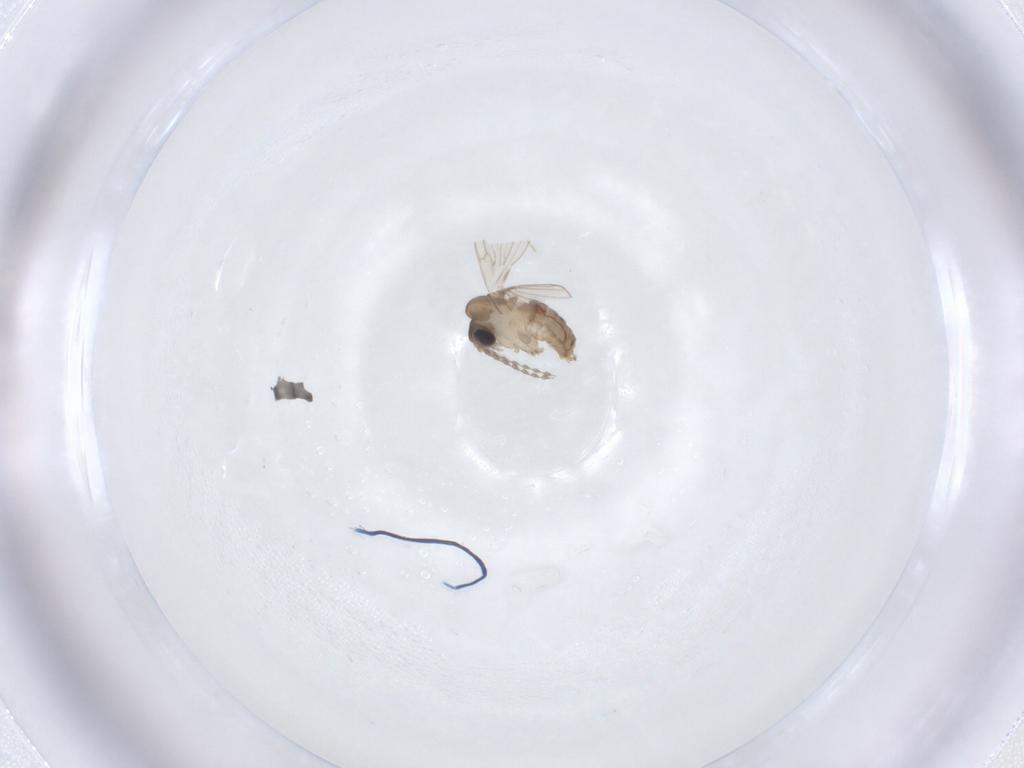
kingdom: Animalia
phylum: Arthropoda
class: Insecta
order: Diptera
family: Psychodidae
